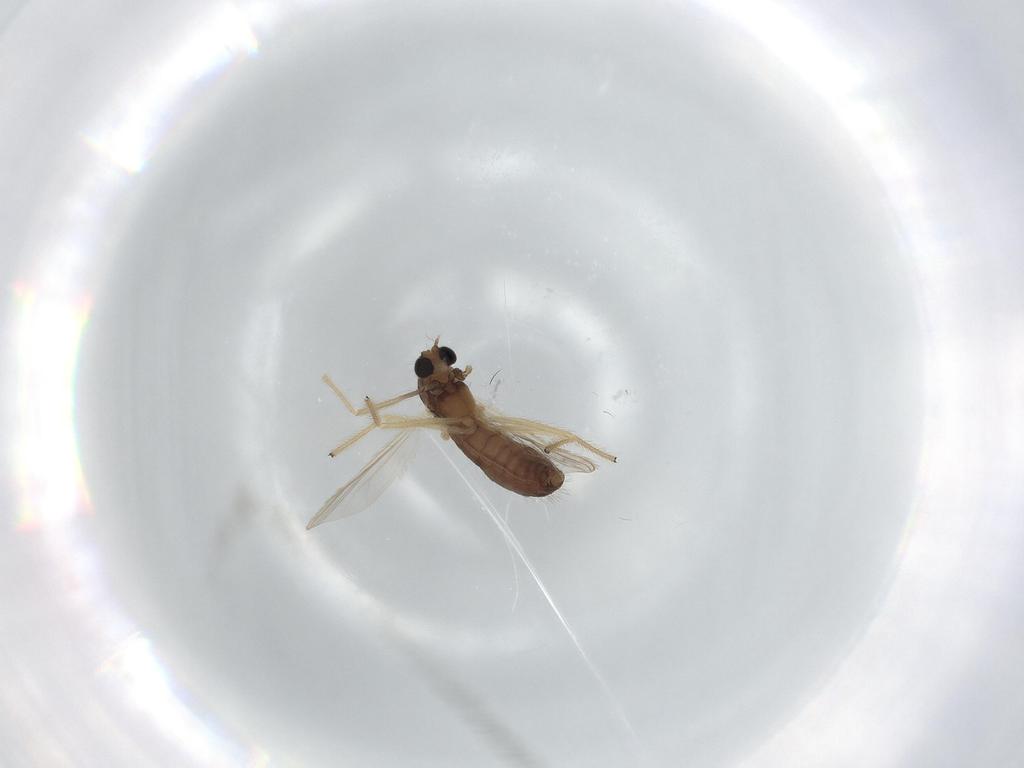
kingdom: Animalia
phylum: Arthropoda
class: Insecta
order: Diptera
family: Chironomidae
